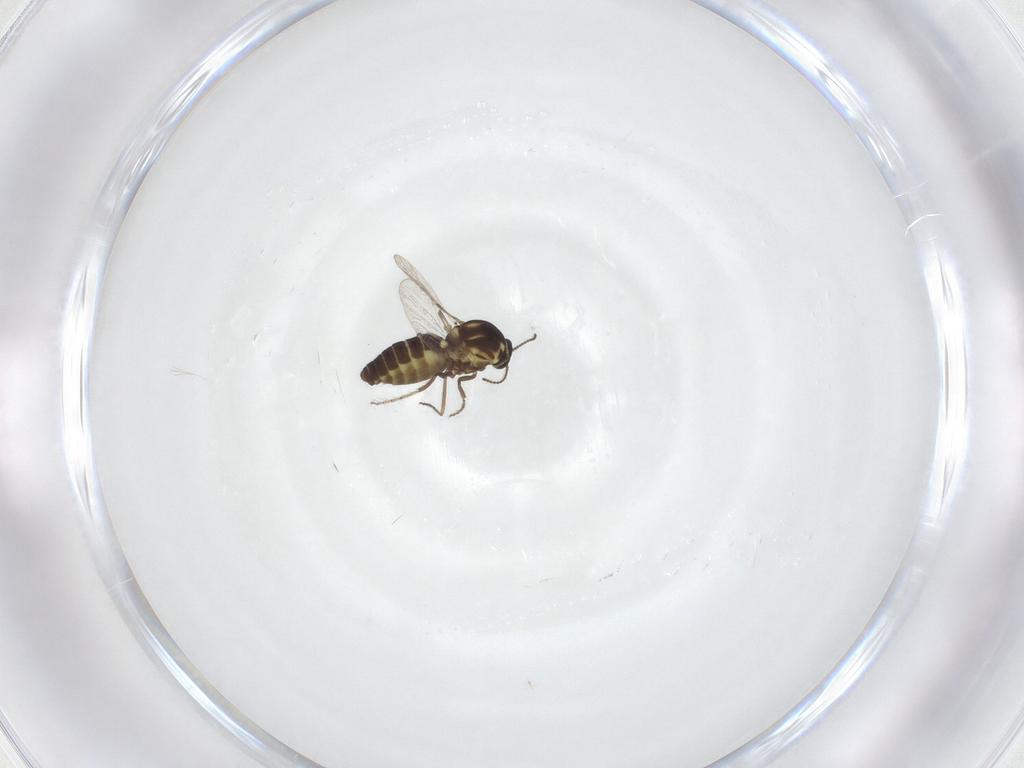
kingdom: Animalia
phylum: Arthropoda
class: Insecta
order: Diptera
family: Ceratopogonidae
